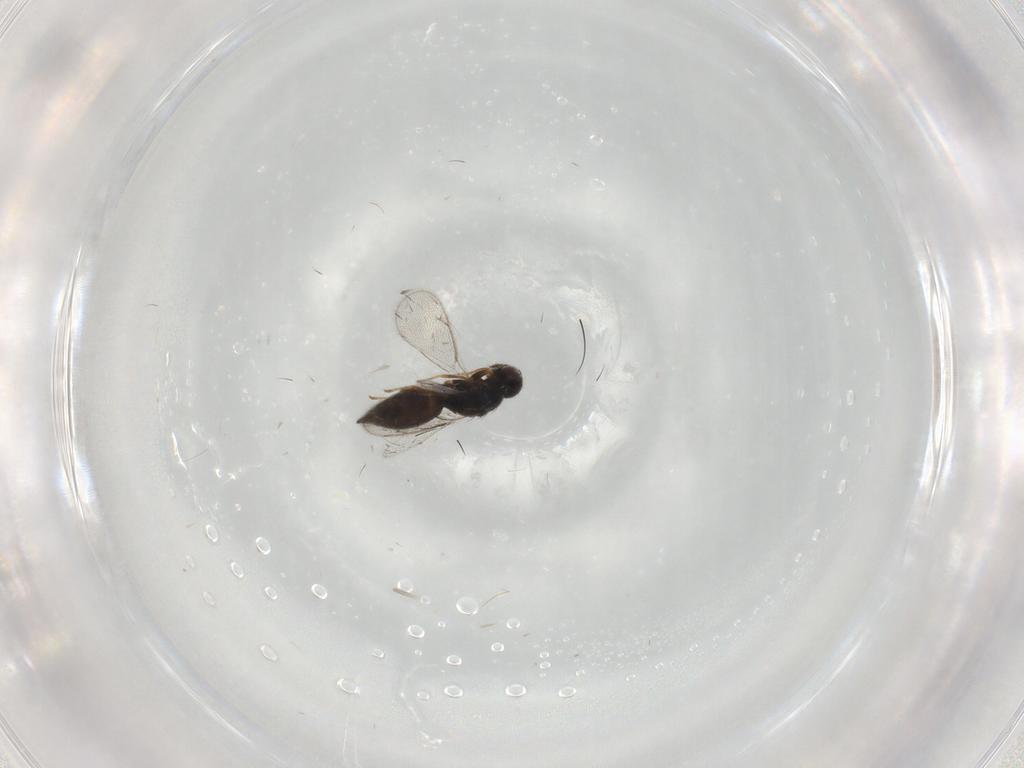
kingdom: Animalia
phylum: Arthropoda
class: Insecta
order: Hymenoptera
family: Eulophidae
